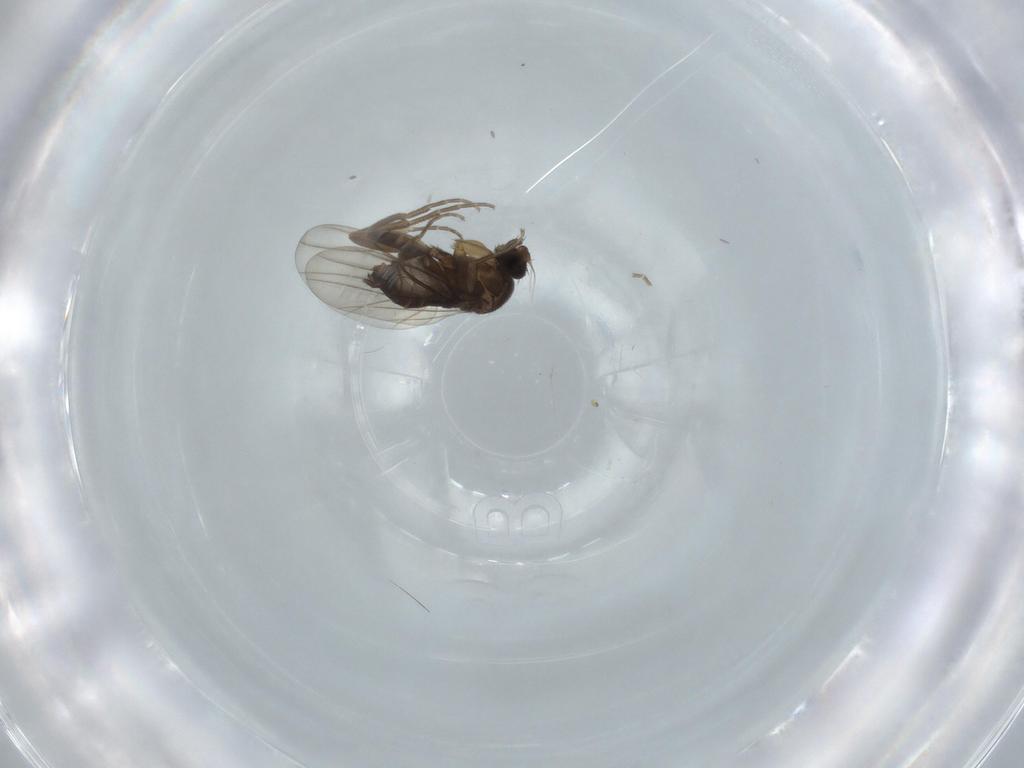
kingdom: Animalia
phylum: Arthropoda
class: Insecta
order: Diptera
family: Phoridae
